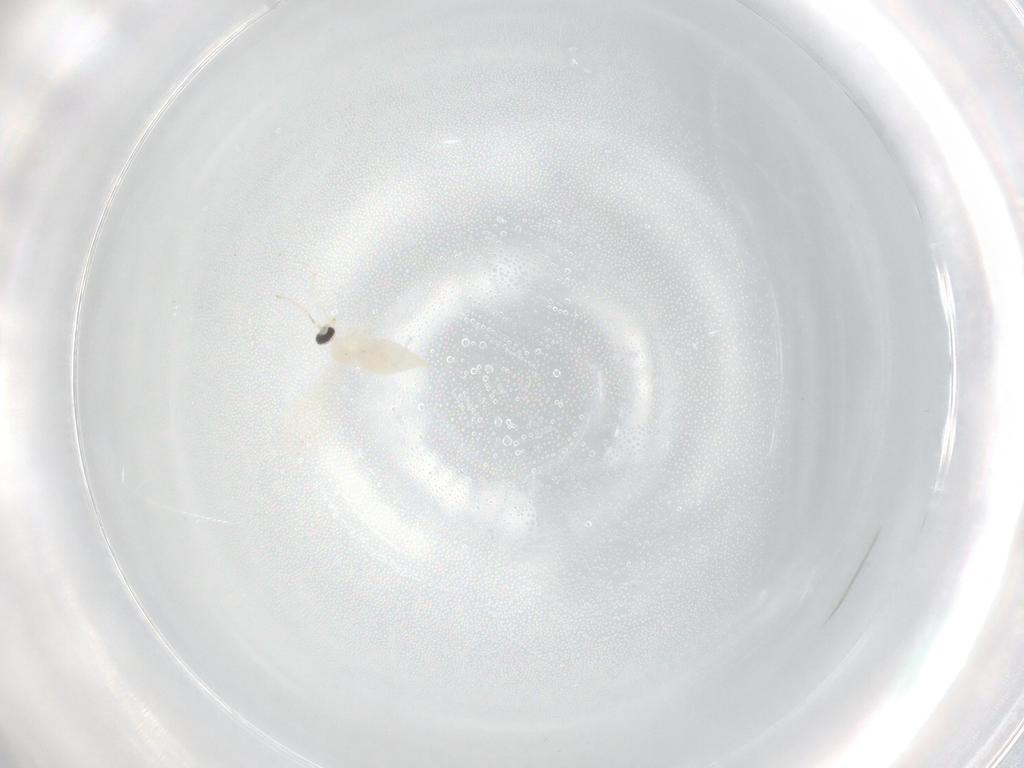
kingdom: Animalia
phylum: Arthropoda
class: Insecta
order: Diptera
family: Cecidomyiidae
